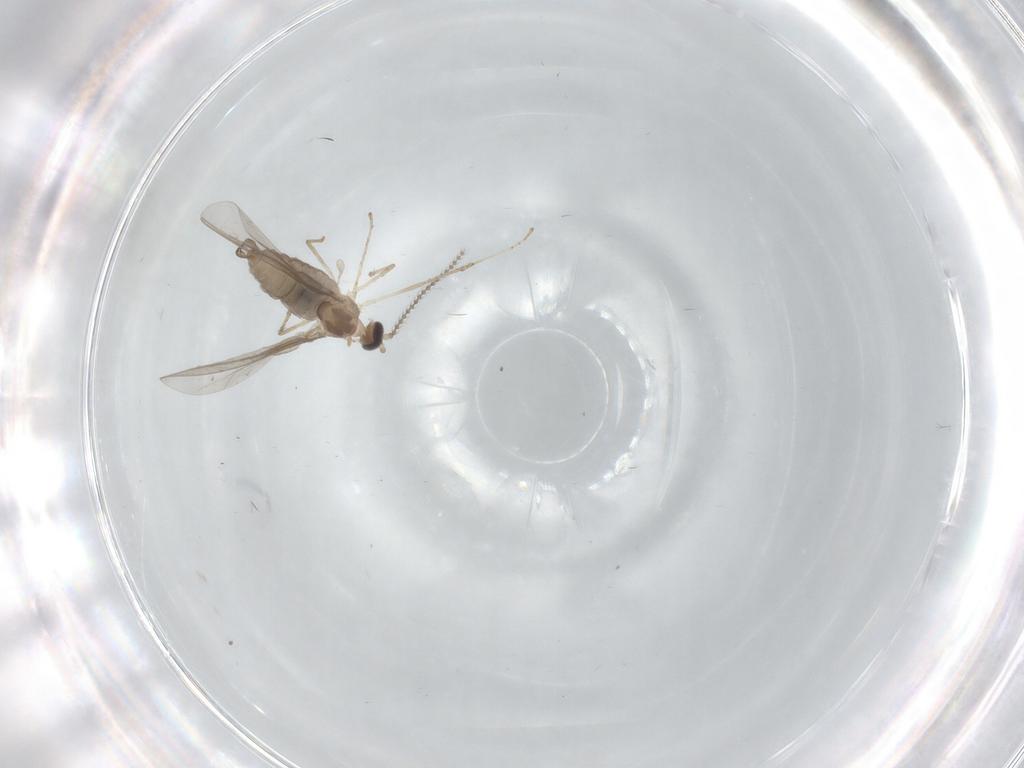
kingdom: Animalia
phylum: Arthropoda
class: Insecta
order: Diptera
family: Cecidomyiidae
